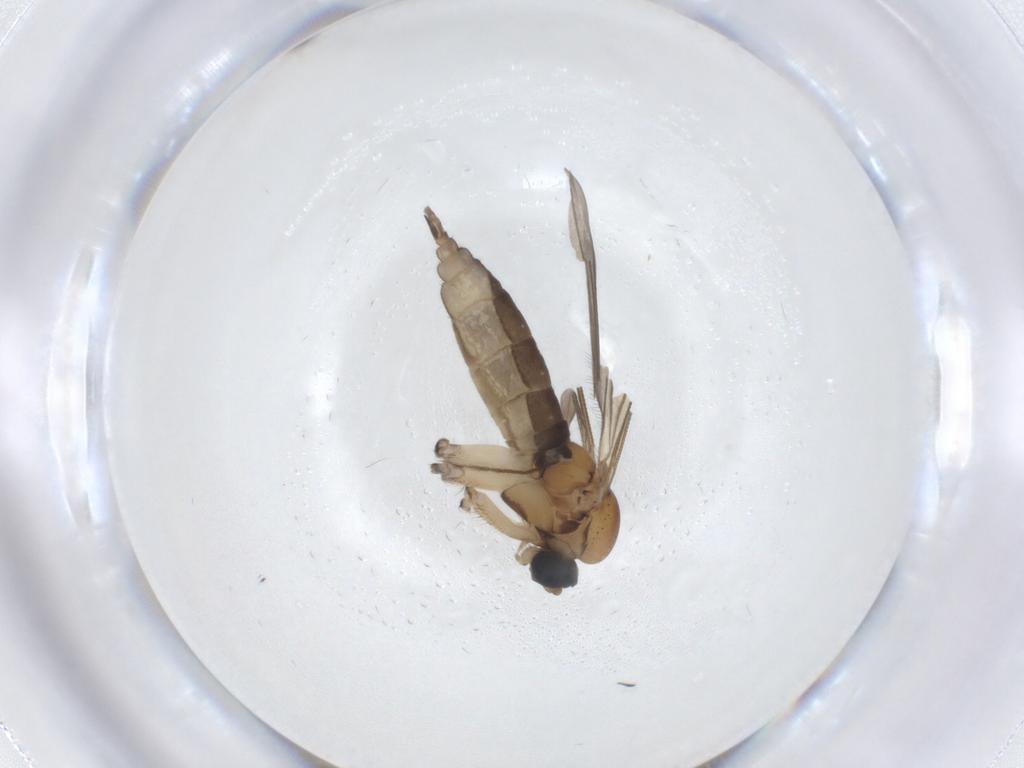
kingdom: Animalia
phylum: Arthropoda
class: Insecta
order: Diptera
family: Sciaridae
